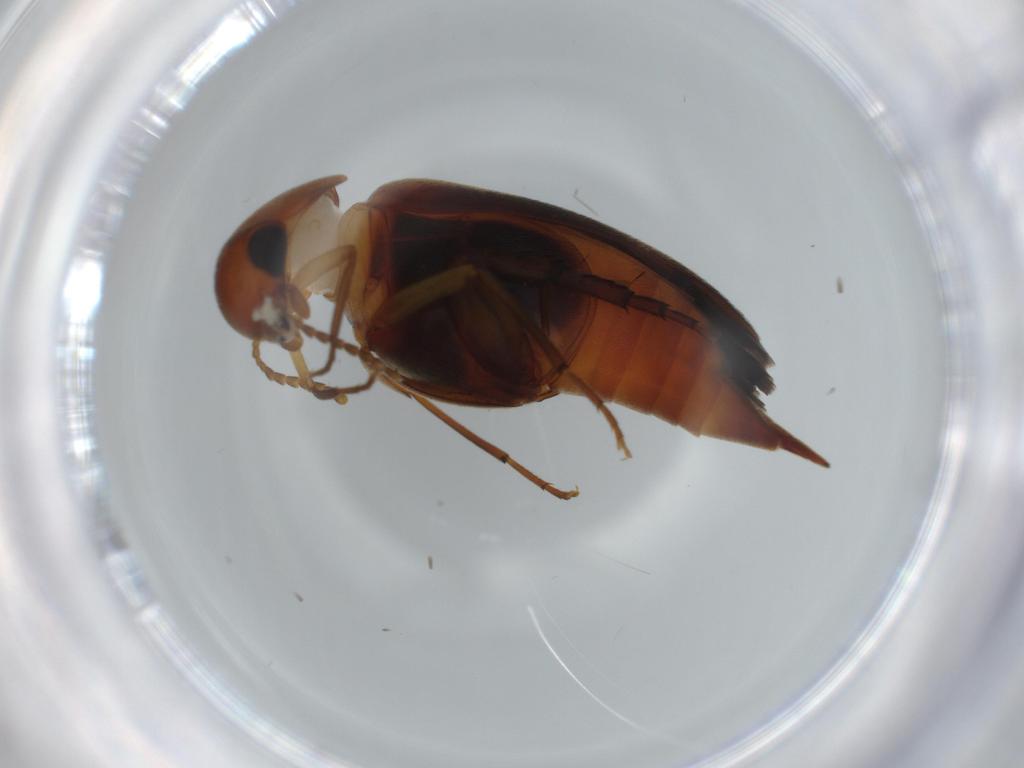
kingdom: Animalia
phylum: Arthropoda
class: Insecta
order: Coleoptera
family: Mordellidae
